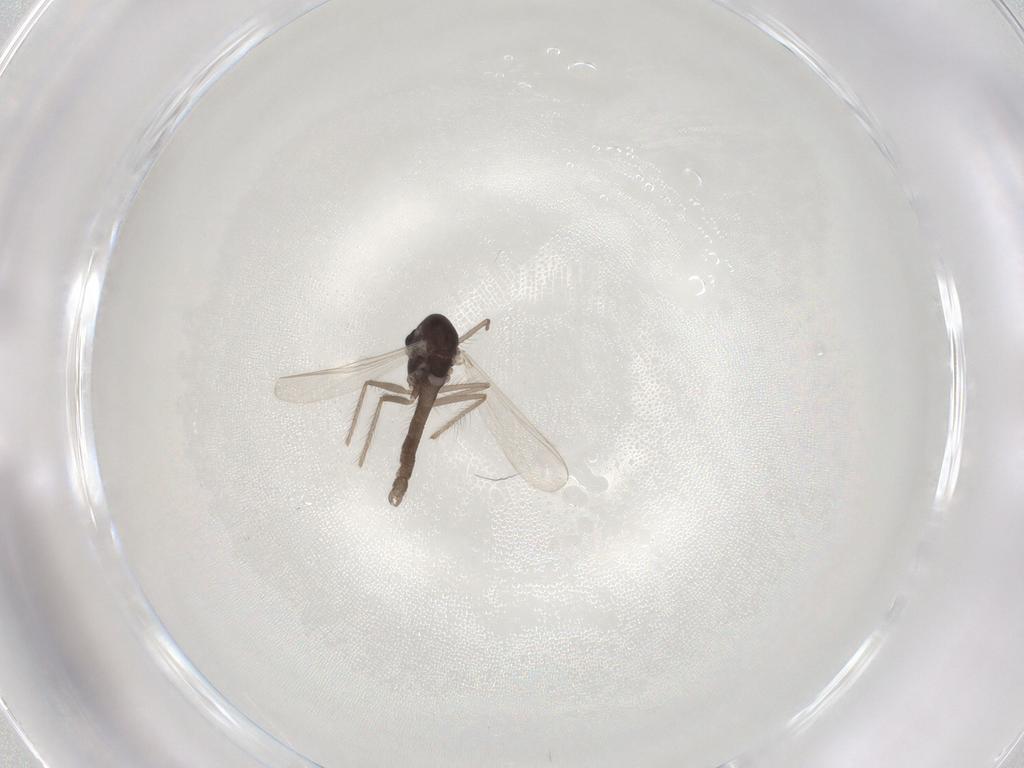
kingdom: Animalia
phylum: Arthropoda
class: Insecta
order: Diptera
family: Chironomidae
